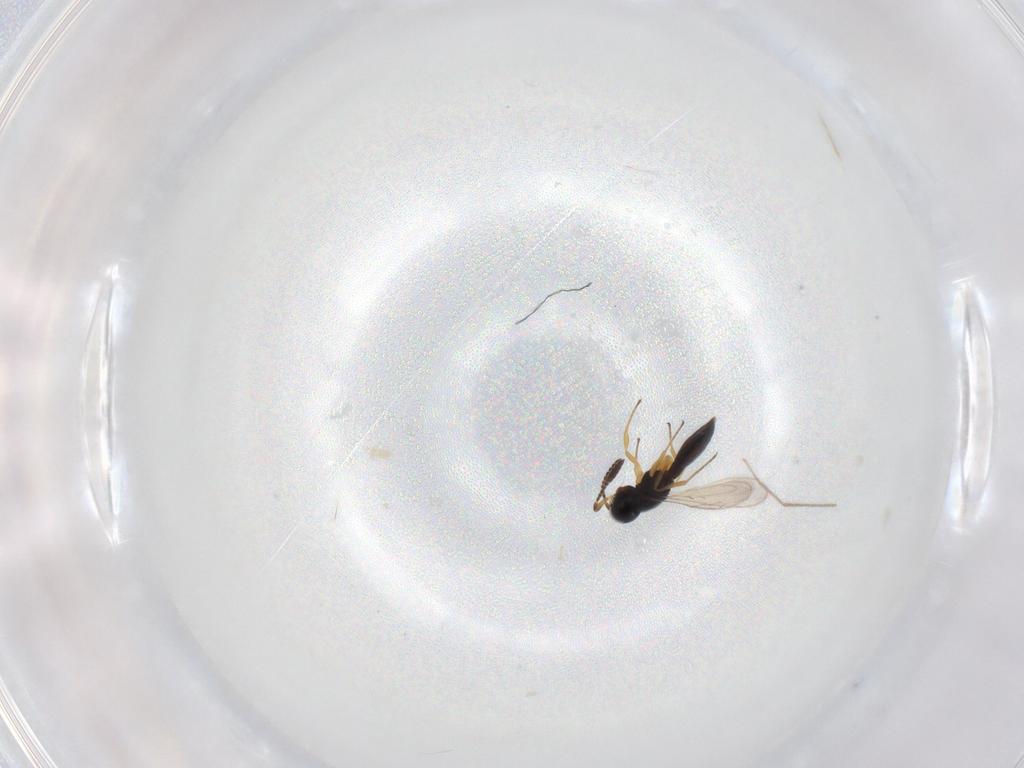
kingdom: Animalia
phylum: Arthropoda
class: Insecta
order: Hymenoptera
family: Scelionidae
